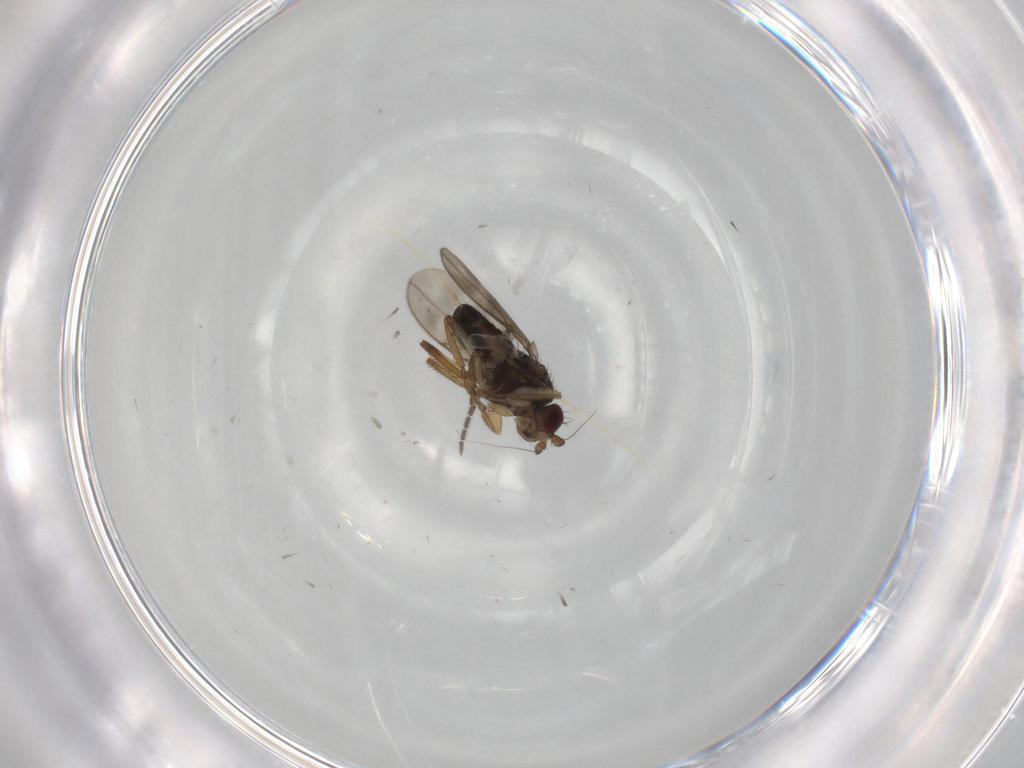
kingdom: Animalia
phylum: Arthropoda
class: Insecta
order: Diptera
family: Sphaeroceridae
